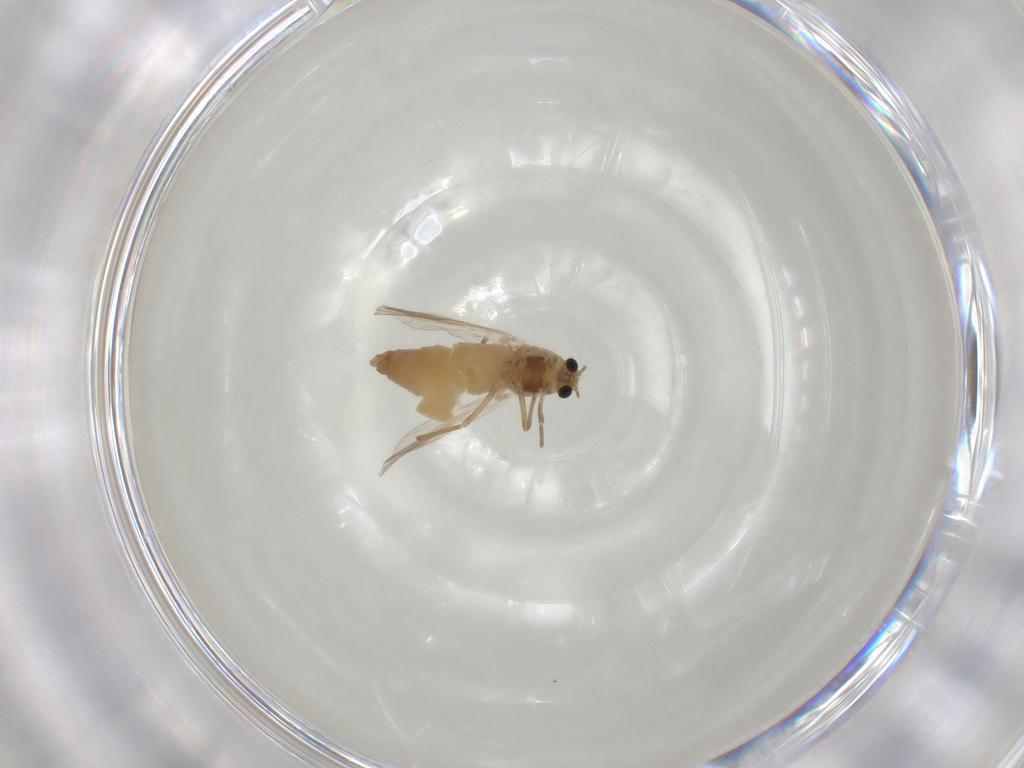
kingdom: Animalia
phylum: Arthropoda
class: Insecta
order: Diptera
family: Chironomidae
